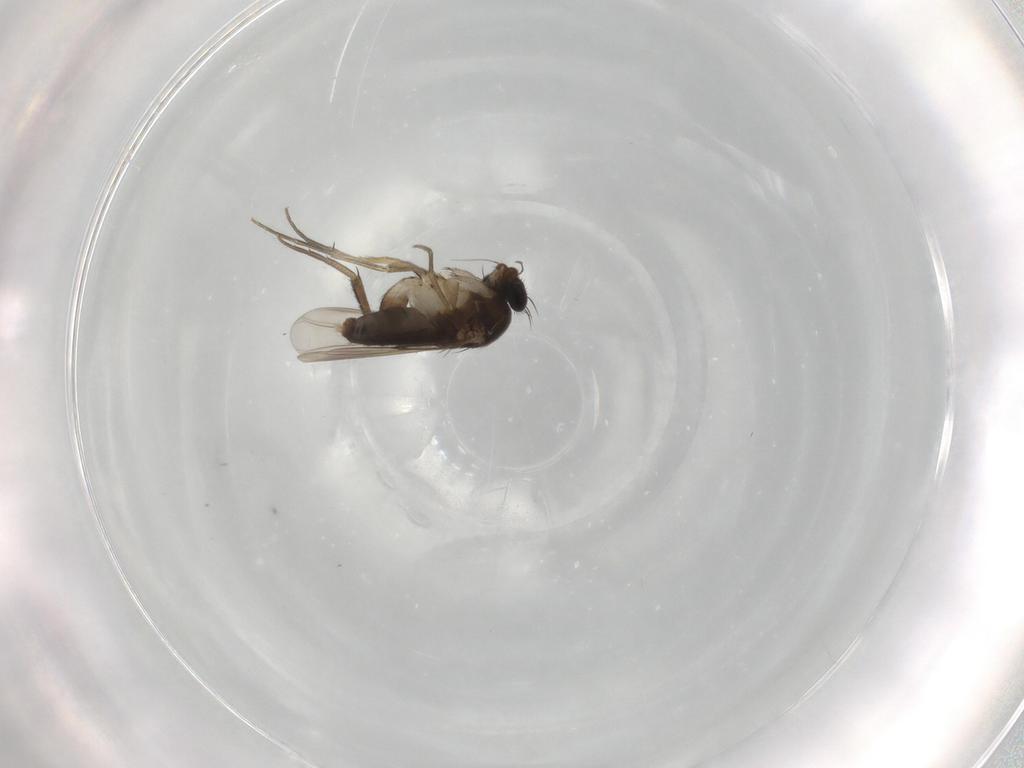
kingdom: Animalia
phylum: Arthropoda
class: Insecta
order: Diptera
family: Phoridae
